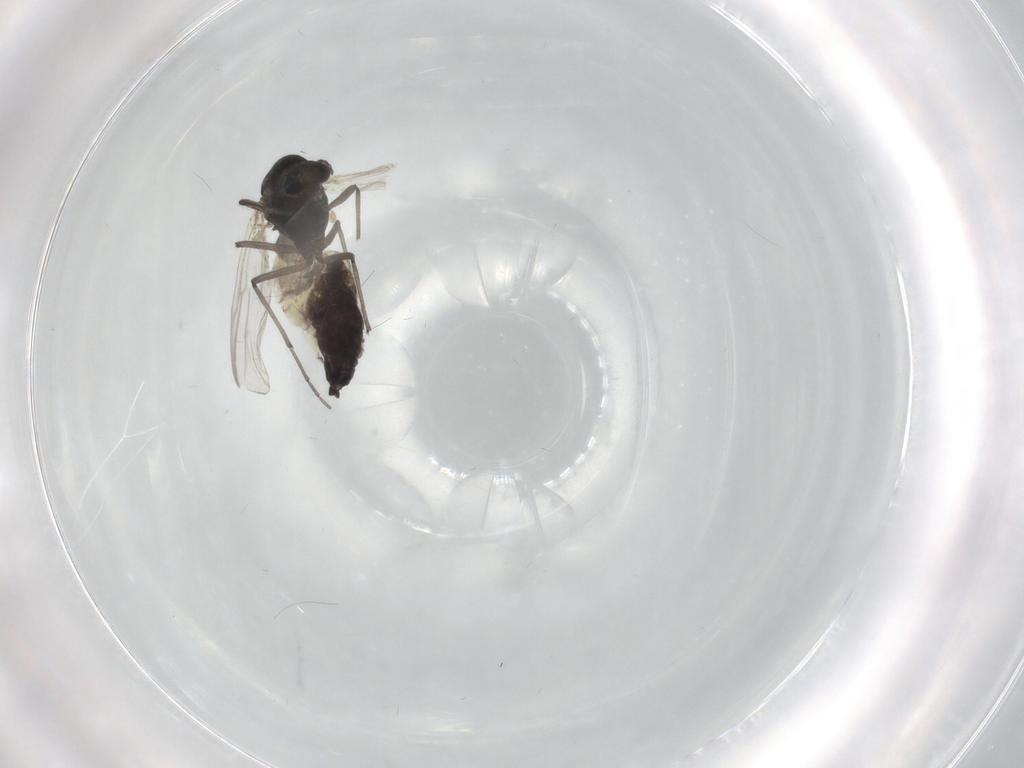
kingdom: Animalia
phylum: Arthropoda
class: Insecta
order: Diptera
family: Chironomidae
